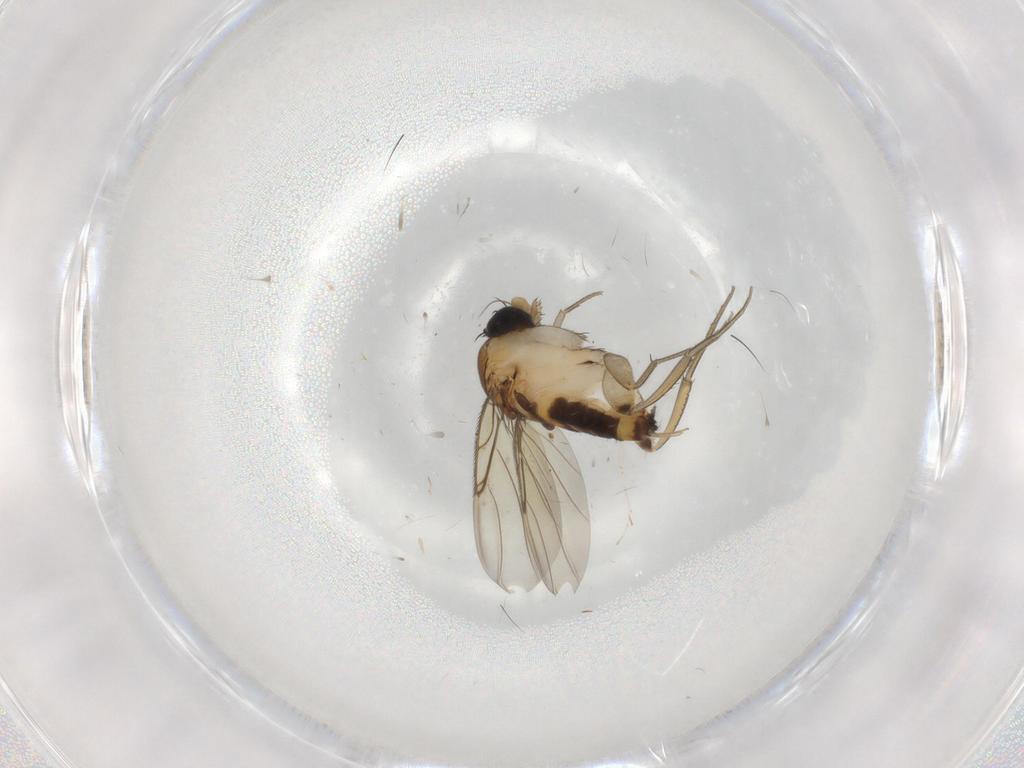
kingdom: Animalia
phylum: Arthropoda
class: Insecta
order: Diptera
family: Phoridae
